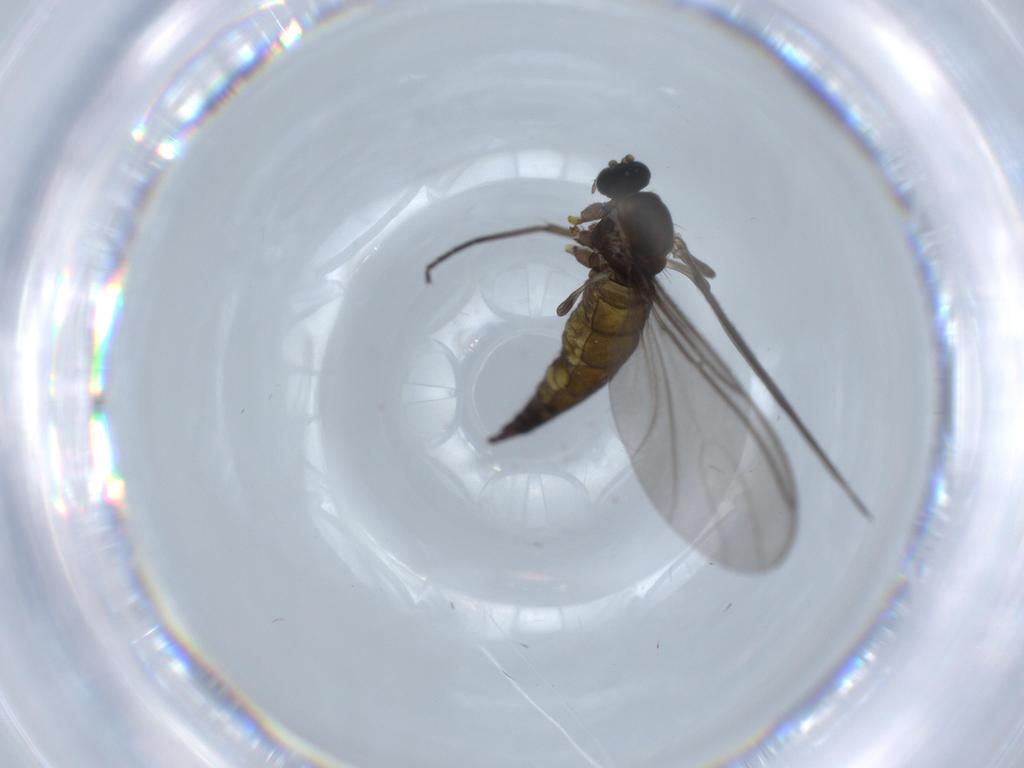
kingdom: Animalia
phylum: Arthropoda
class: Insecta
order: Diptera
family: Sciaridae
